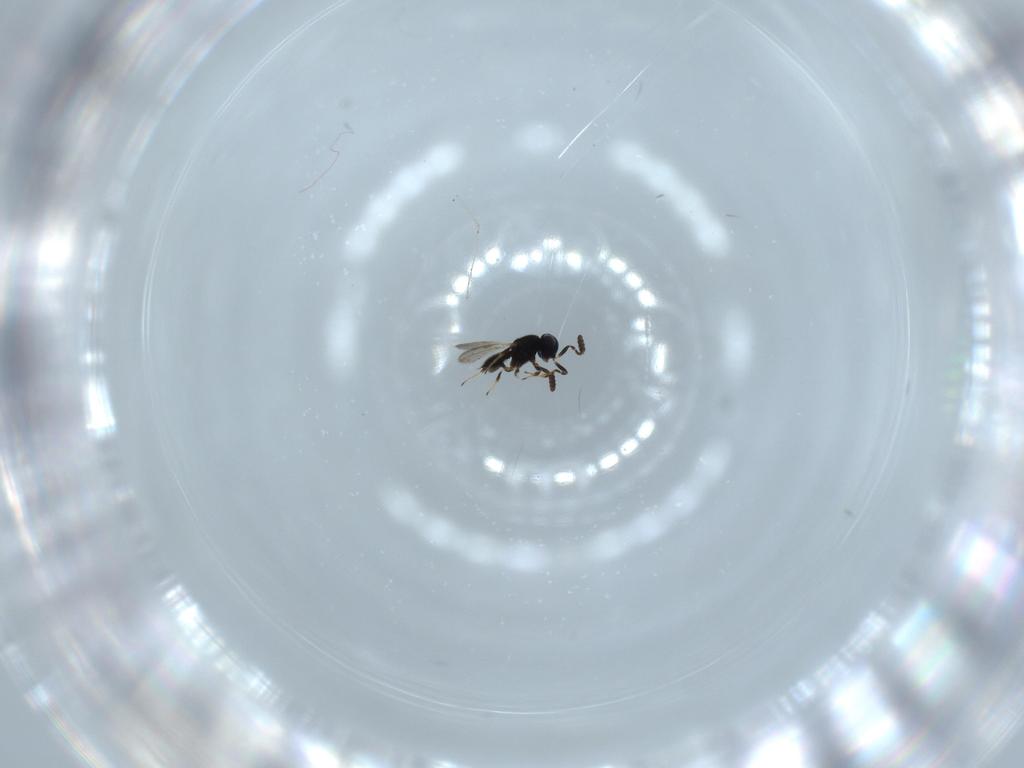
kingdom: Animalia
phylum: Arthropoda
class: Insecta
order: Hymenoptera
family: Scelionidae
